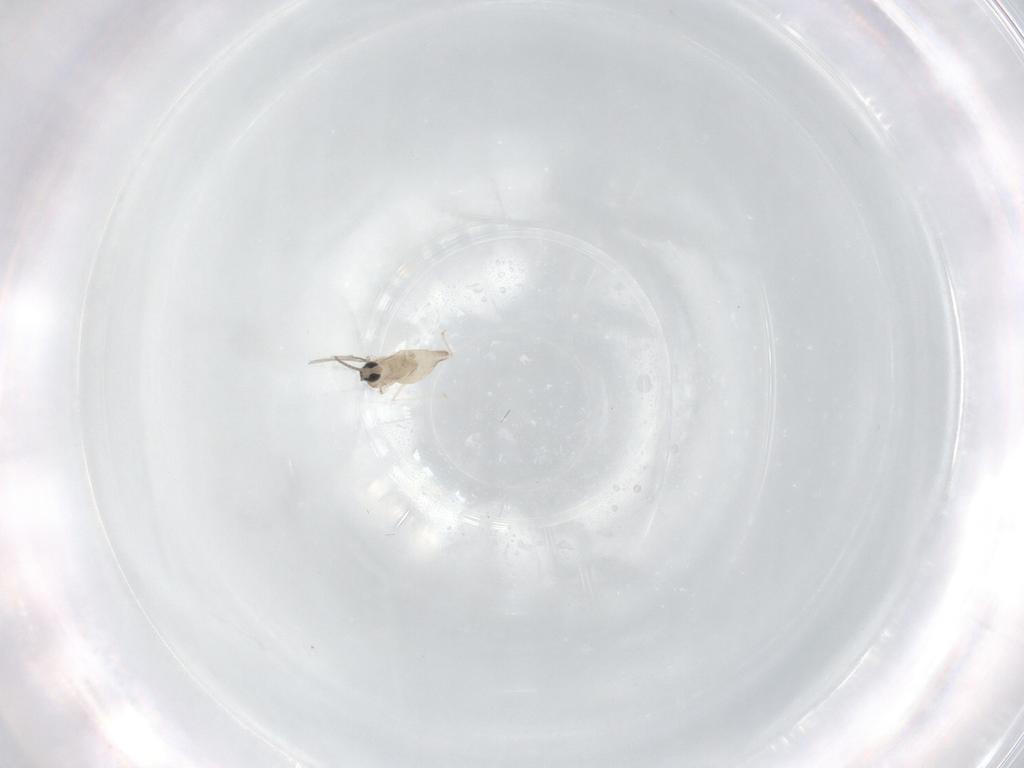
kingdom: Animalia
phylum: Arthropoda
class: Insecta
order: Diptera
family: Cecidomyiidae
